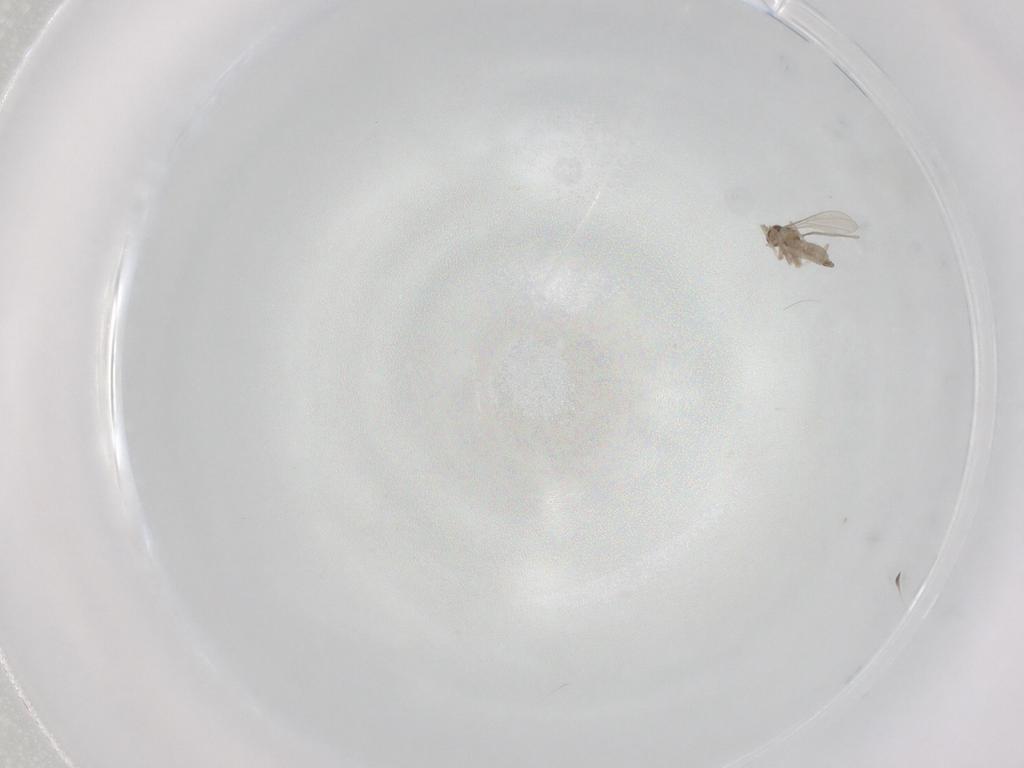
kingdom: Animalia
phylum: Arthropoda
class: Insecta
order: Diptera
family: Cecidomyiidae
